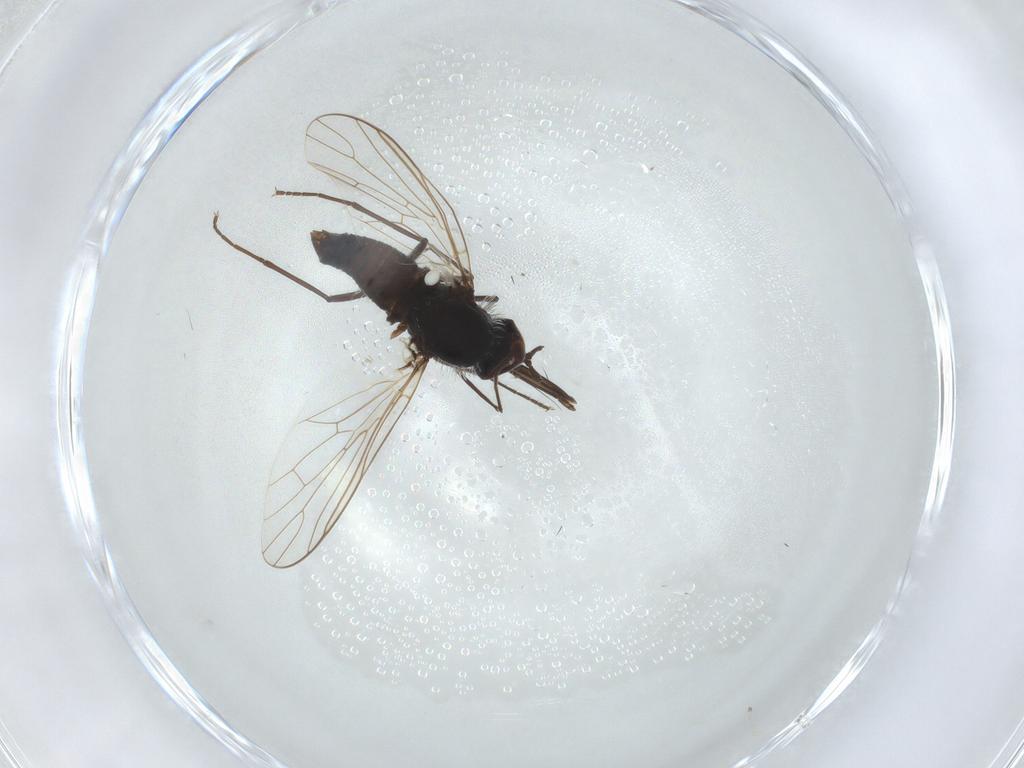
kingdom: Animalia
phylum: Arthropoda
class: Insecta
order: Diptera
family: Bombyliidae
